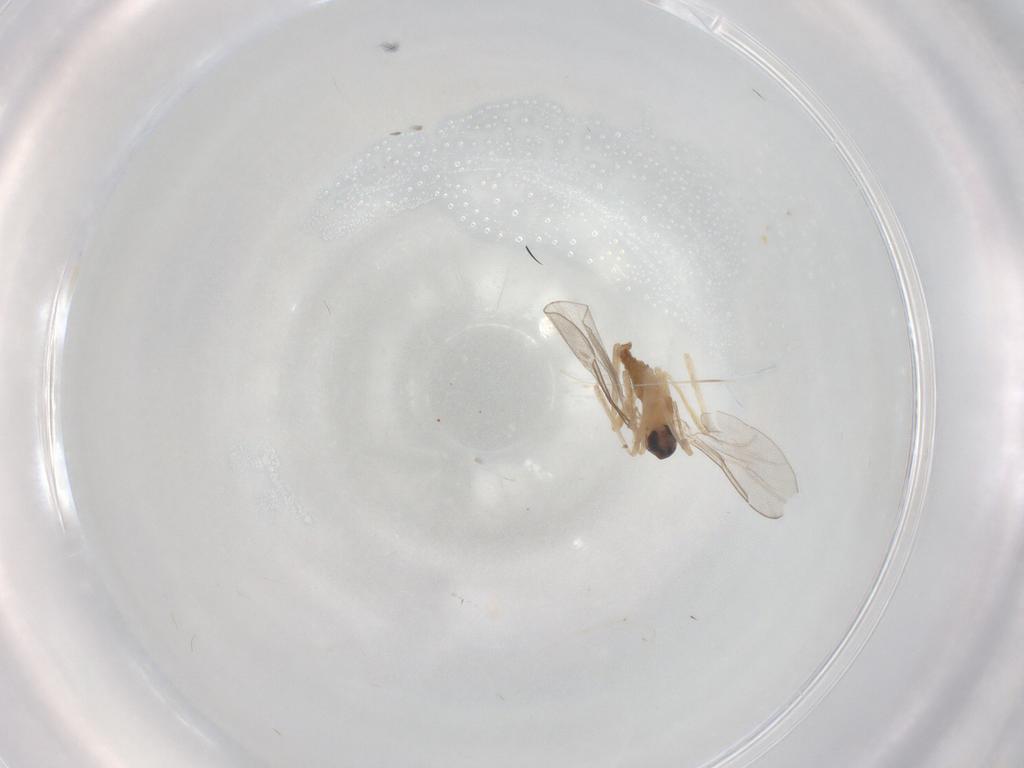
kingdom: Animalia
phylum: Arthropoda
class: Insecta
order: Diptera
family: Cecidomyiidae
